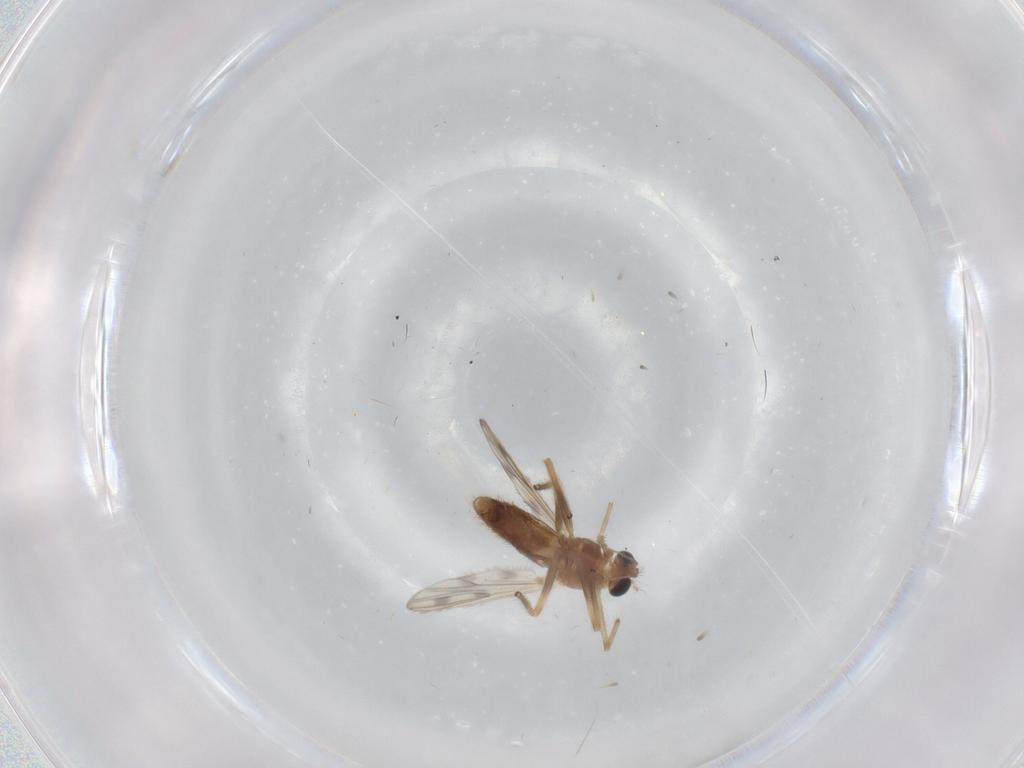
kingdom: Animalia
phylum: Arthropoda
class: Insecta
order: Diptera
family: Chironomidae
